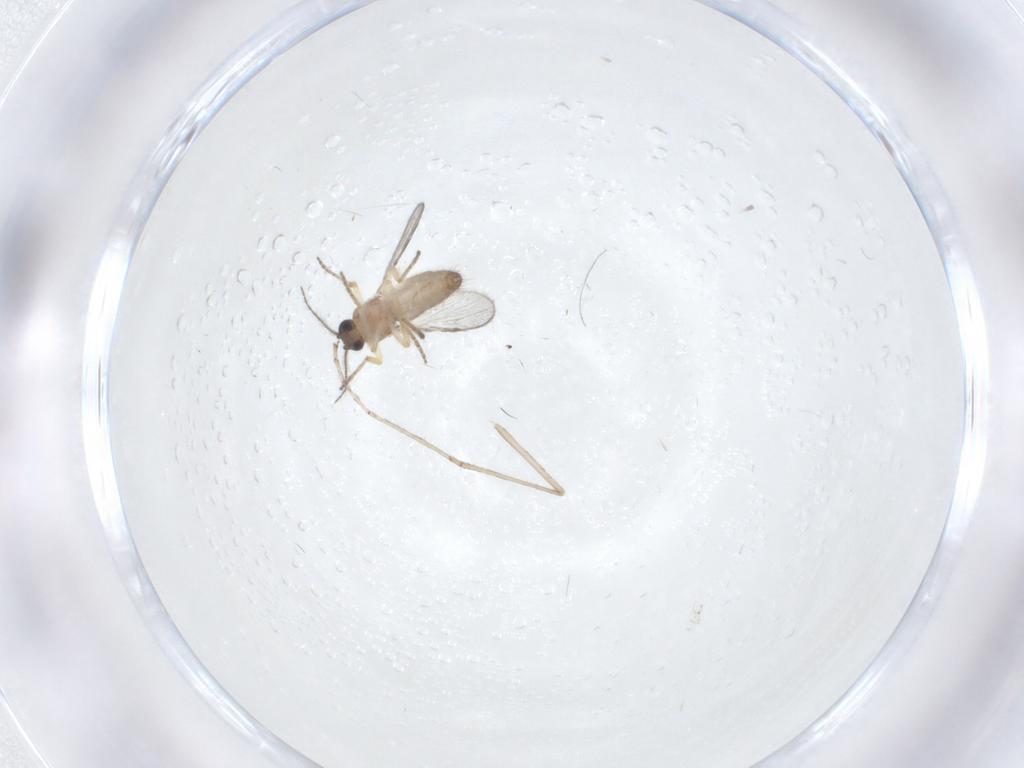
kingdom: Animalia
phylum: Arthropoda
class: Insecta
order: Diptera
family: Ceratopogonidae
